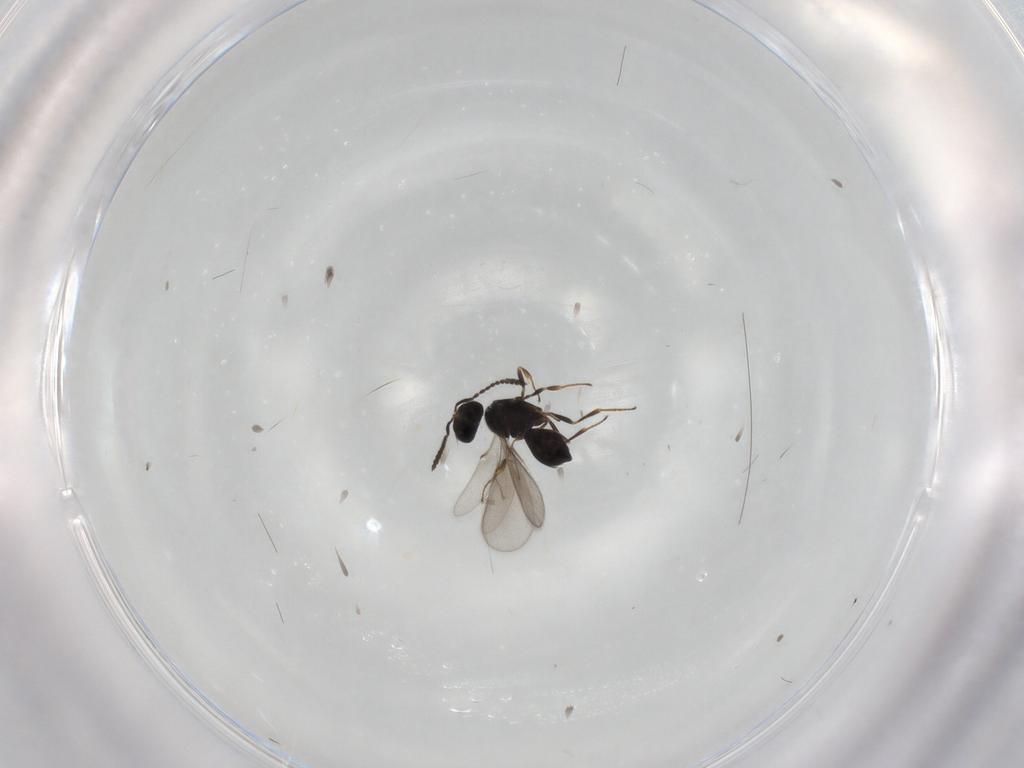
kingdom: Animalia
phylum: Arthropoda
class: Insecta
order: Hymenoptera
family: Scelionidae
